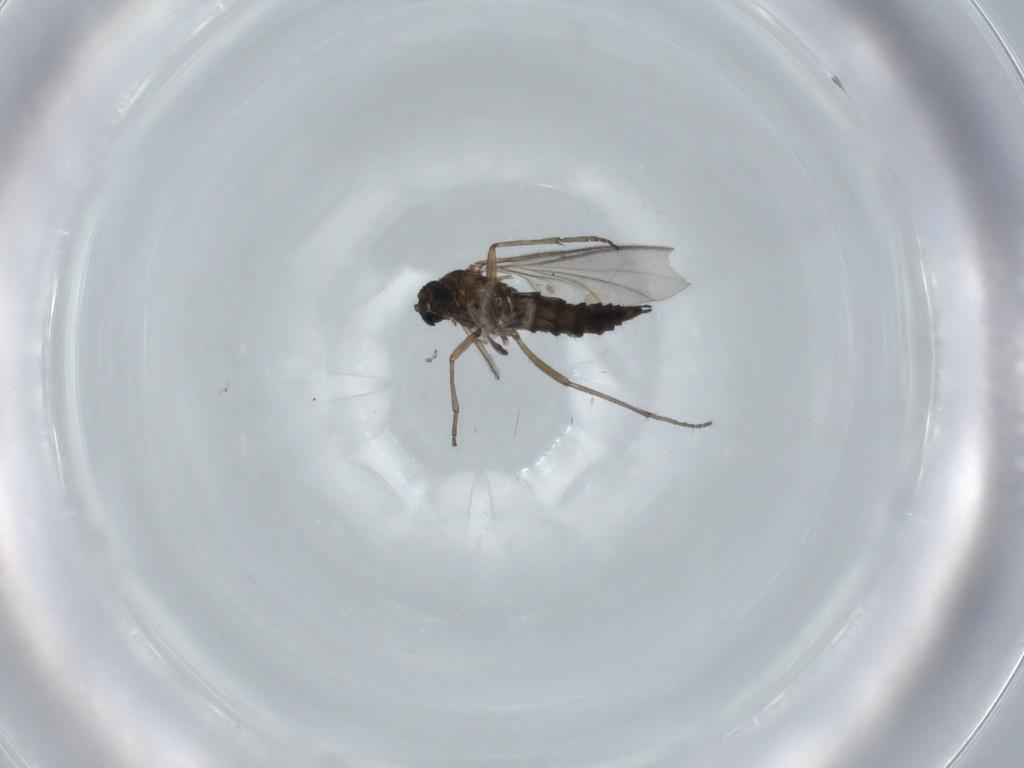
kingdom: Animalia
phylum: Arthropoda
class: Insecta
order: Diptera
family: Sciaridae
